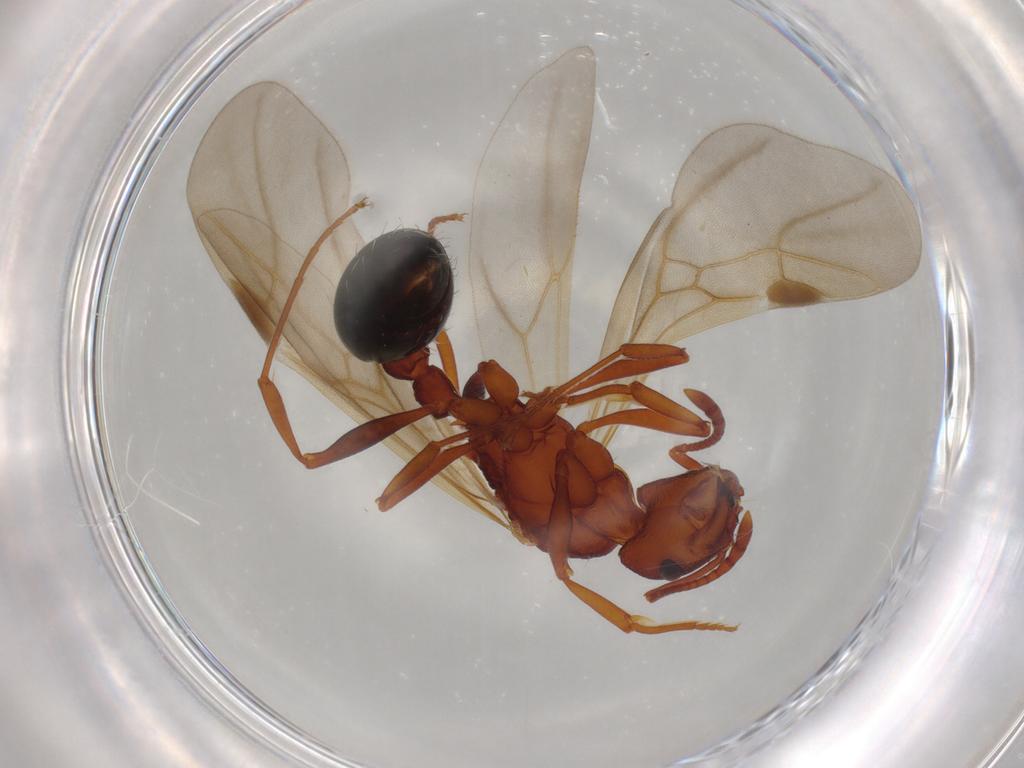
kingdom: Animalia
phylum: Arthropoda
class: Insecta
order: Hymenoptera
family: Formicidae
